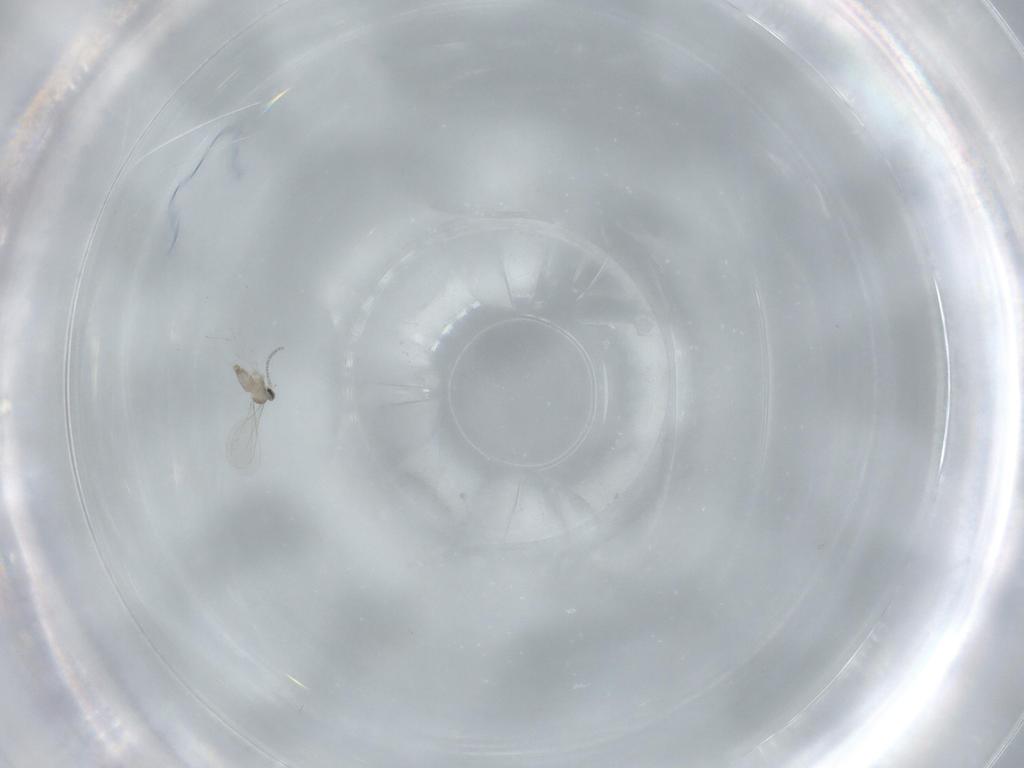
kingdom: Animalia
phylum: Arthropoda
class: Insecta
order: Diptera
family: Cecidomyiidae
